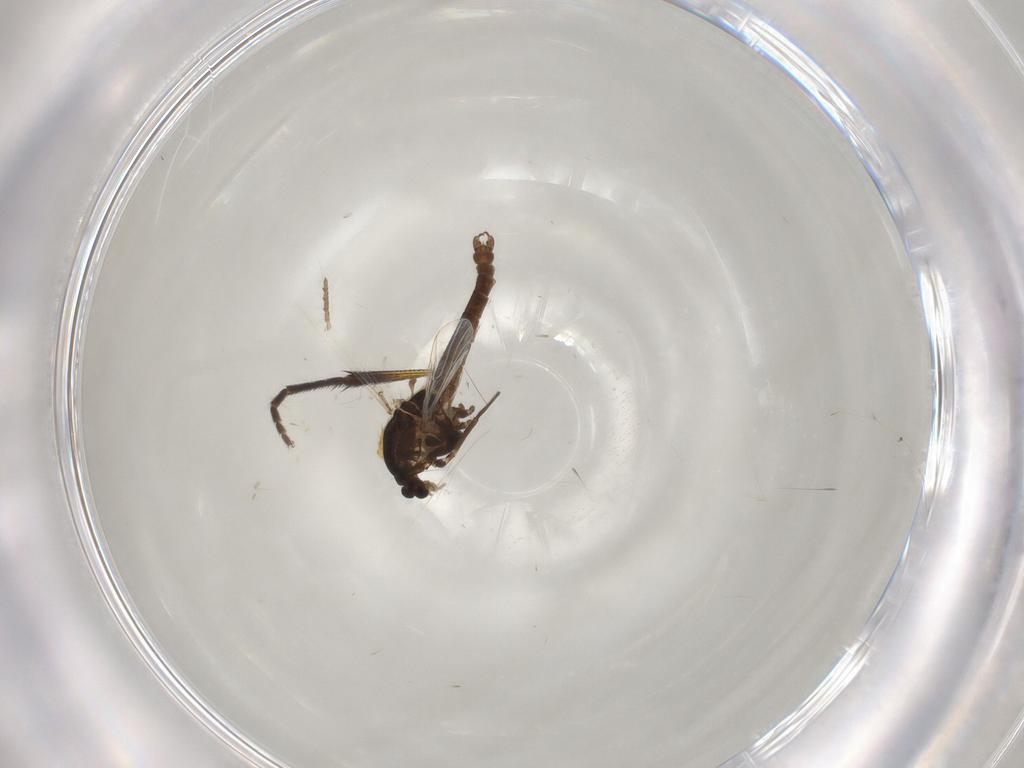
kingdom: Animalia
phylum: Arthropoda
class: Insecta
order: Diptera
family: Chironomidae
